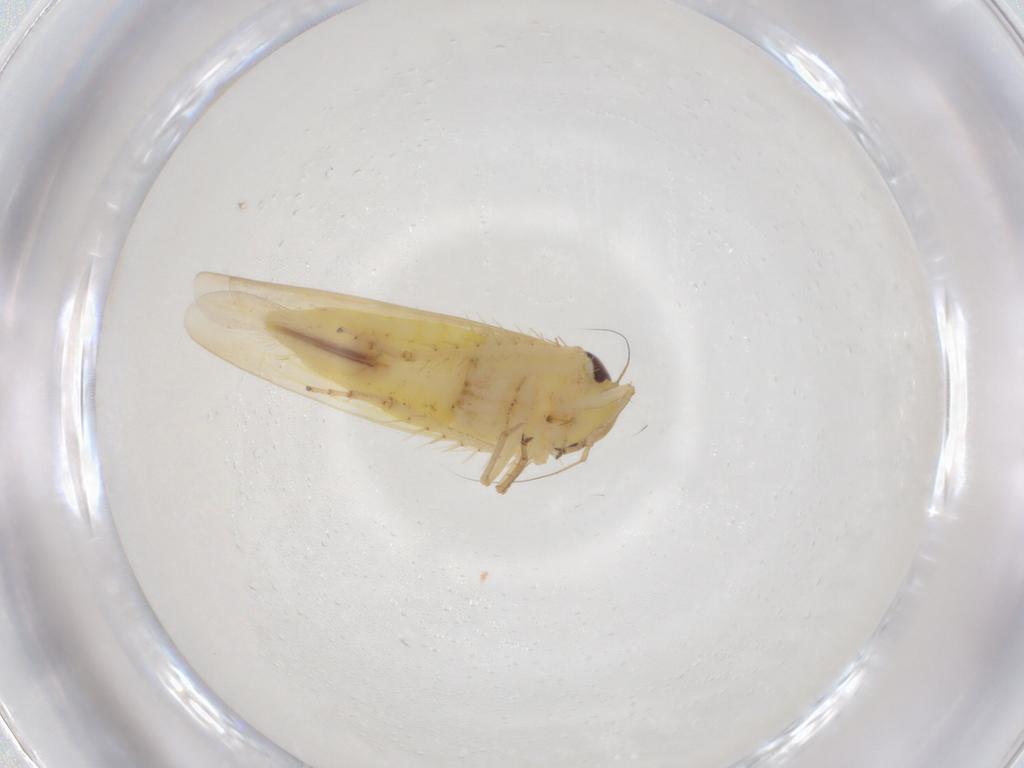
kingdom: Animalia
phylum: Arthropoda
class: Insecta
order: Hemiptera
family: Cicadellidae
